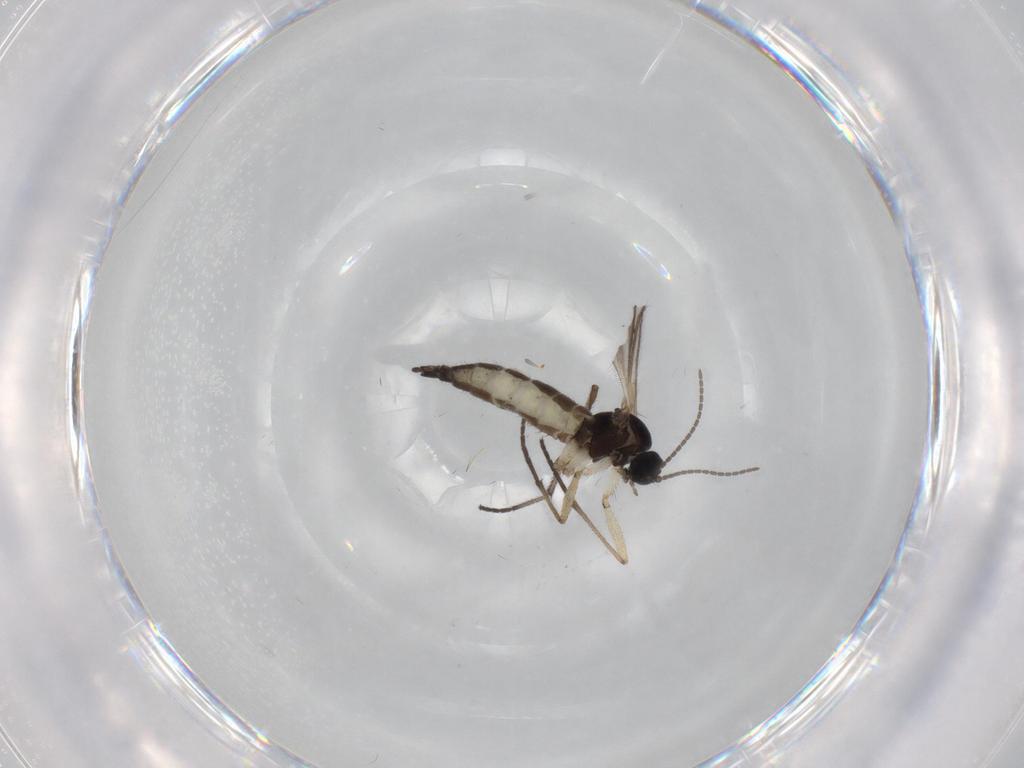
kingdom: Animalia
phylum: Arthropoda
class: Insecta
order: Diptera
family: Sciaridae
